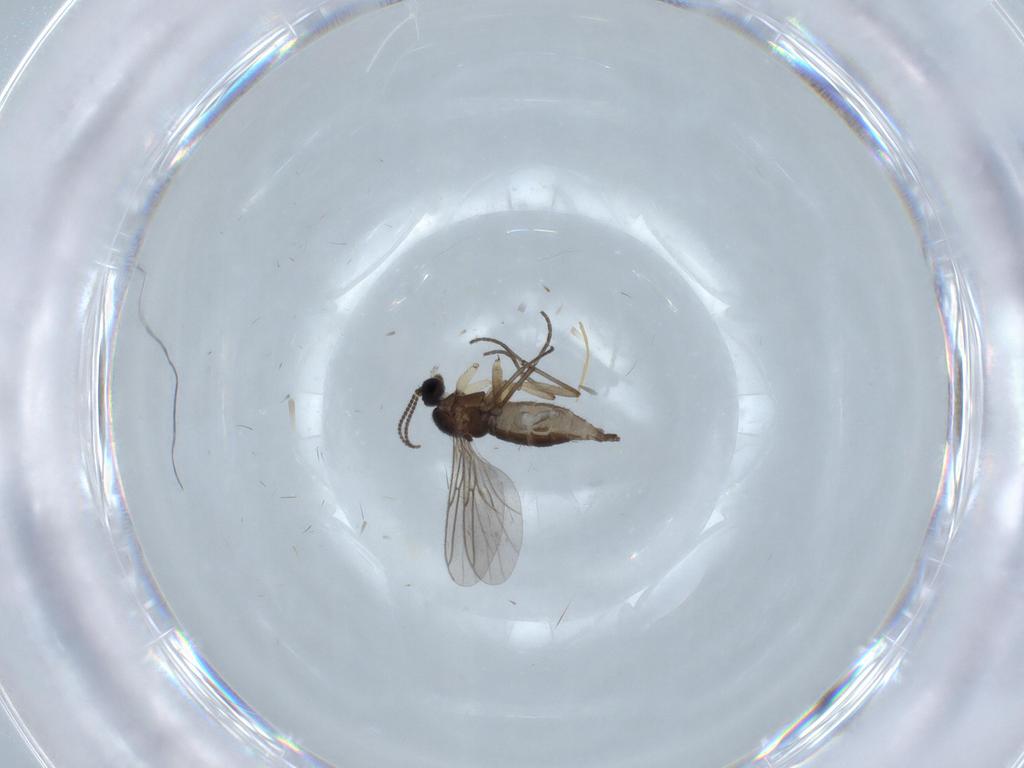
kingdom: Animalia
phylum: Arthropoda
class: Insecta
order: Diptera
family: Sciaridae
